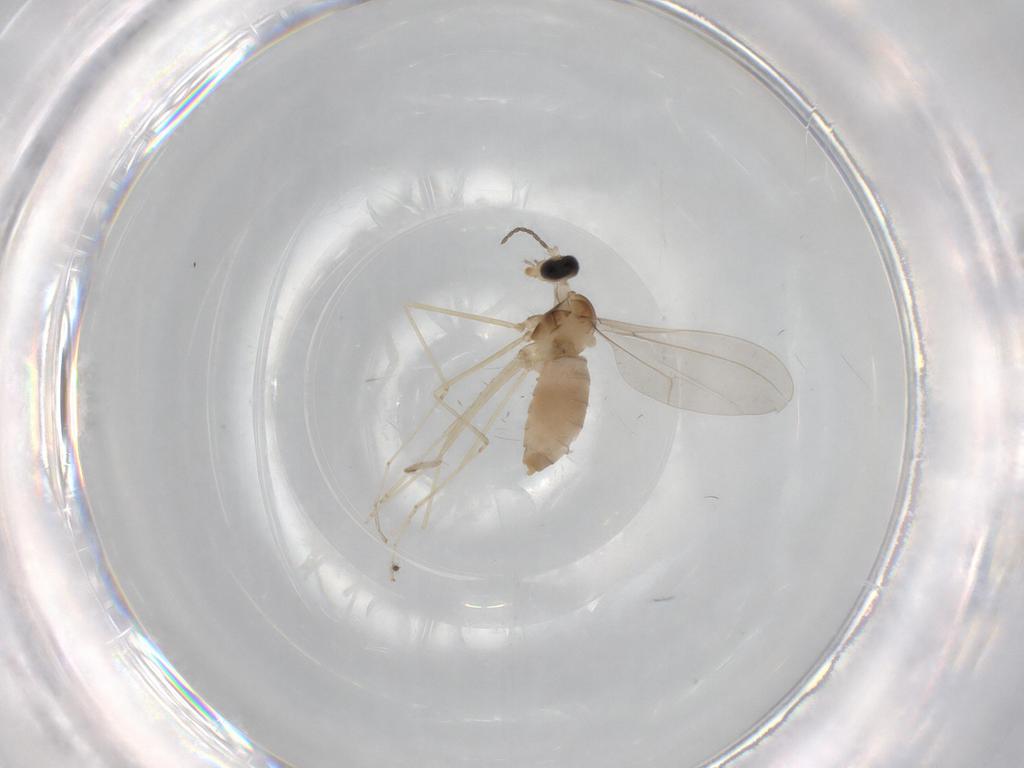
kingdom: Animalia
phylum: Arthropoda
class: Insecta
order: Diptera
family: Cecidomyiidae
